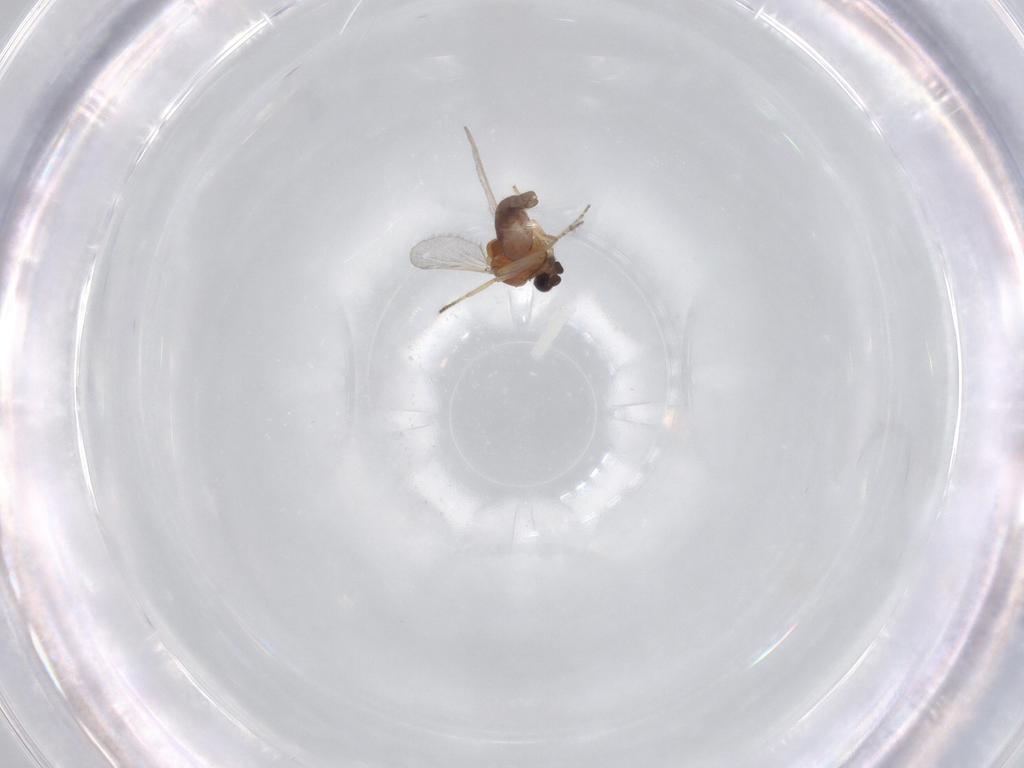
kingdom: Animalia
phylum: Arthropoda
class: Insecta
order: Diptera
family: Ceratopogonidae
